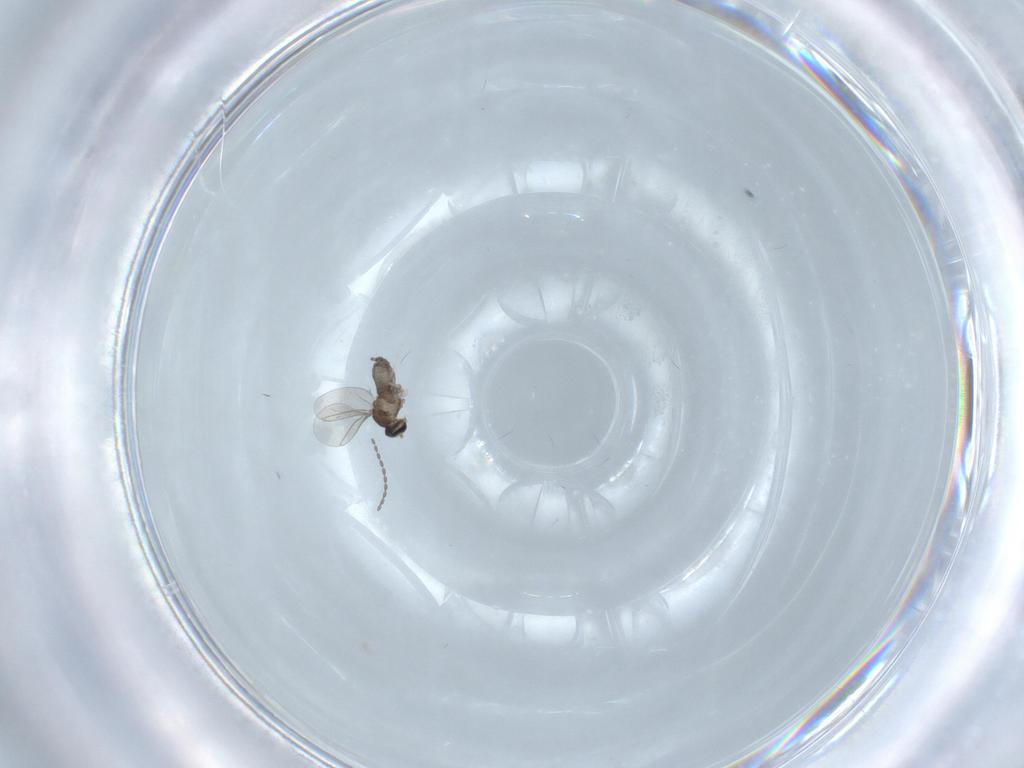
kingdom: Animalia
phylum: Arthropoda
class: Insecta
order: Diptera
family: Cecidomyiidae
